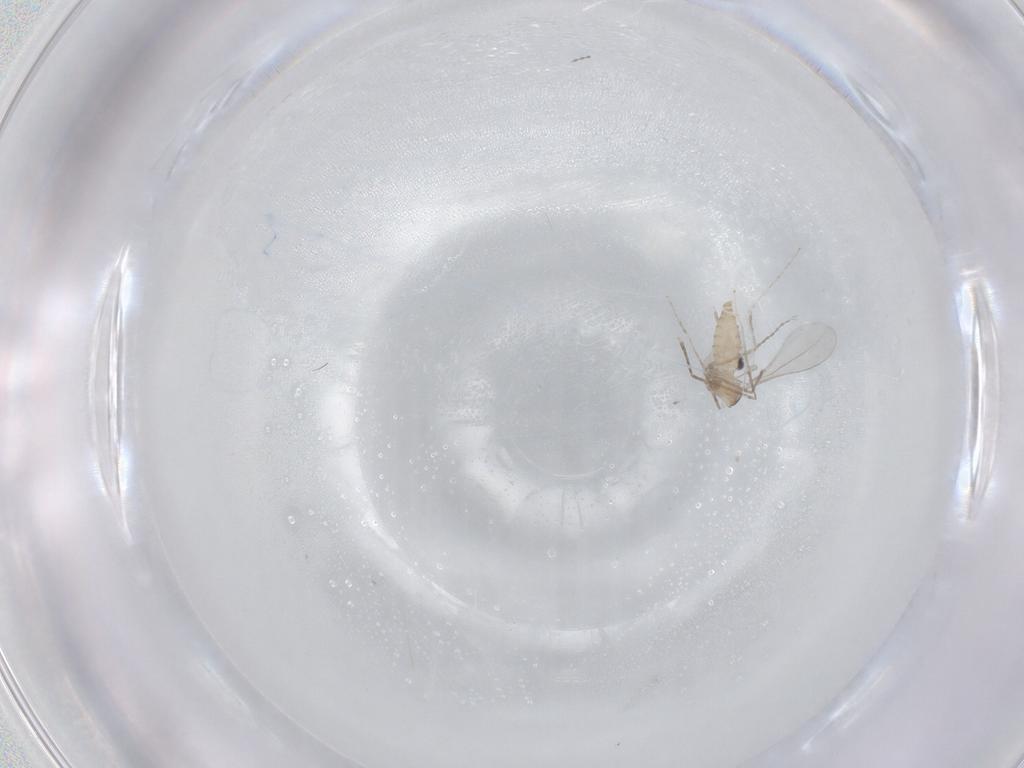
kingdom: Animalia
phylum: Arthropoda
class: Insecta
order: Diptera
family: Cecidomyiidae
